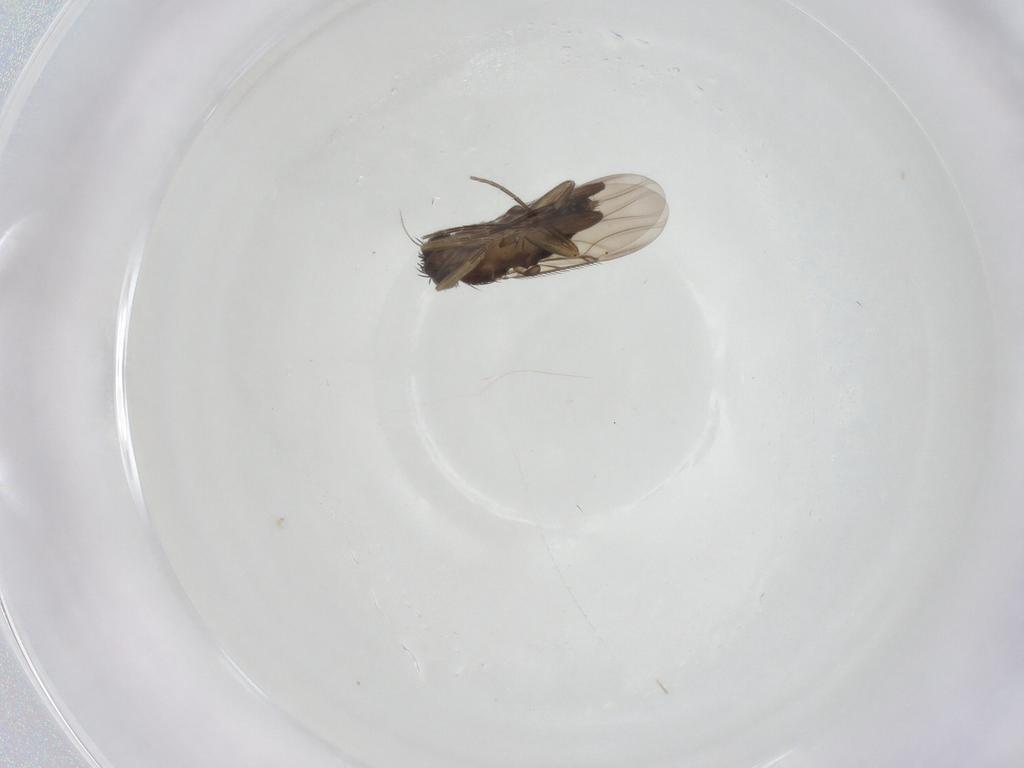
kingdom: Animalia
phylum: Arthropoda
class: Insecta
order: Diptera
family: Phoridae
